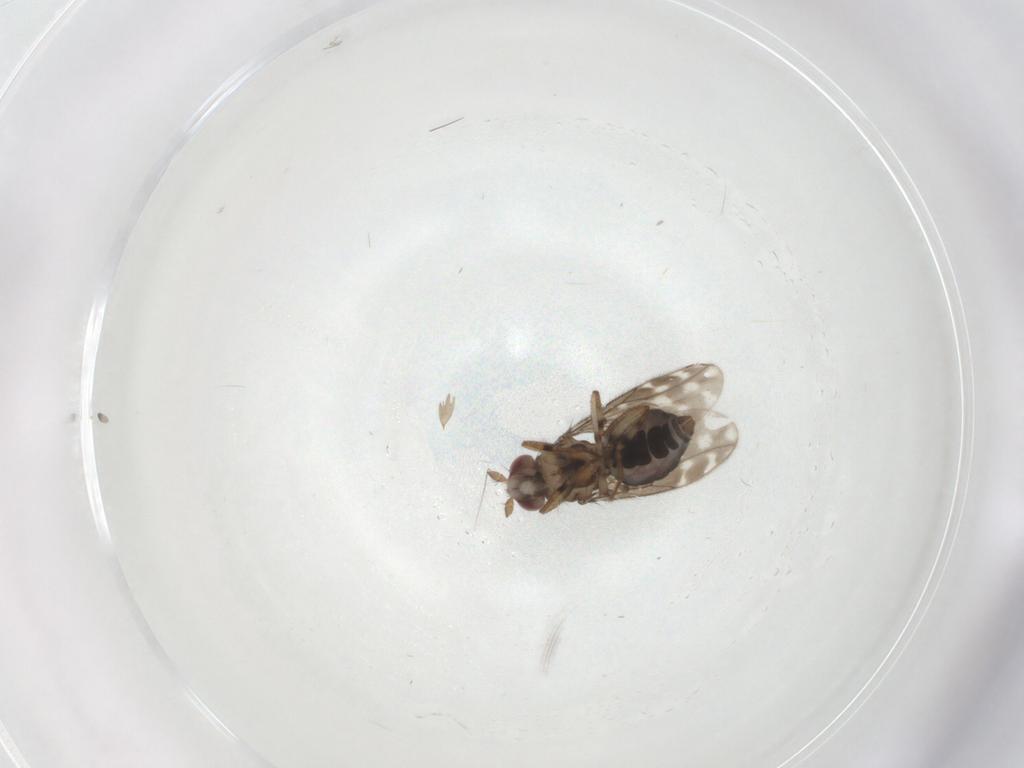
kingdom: Animalia
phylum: Arthropoda
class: Insecta
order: Diptera
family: Sphaeroceridae
